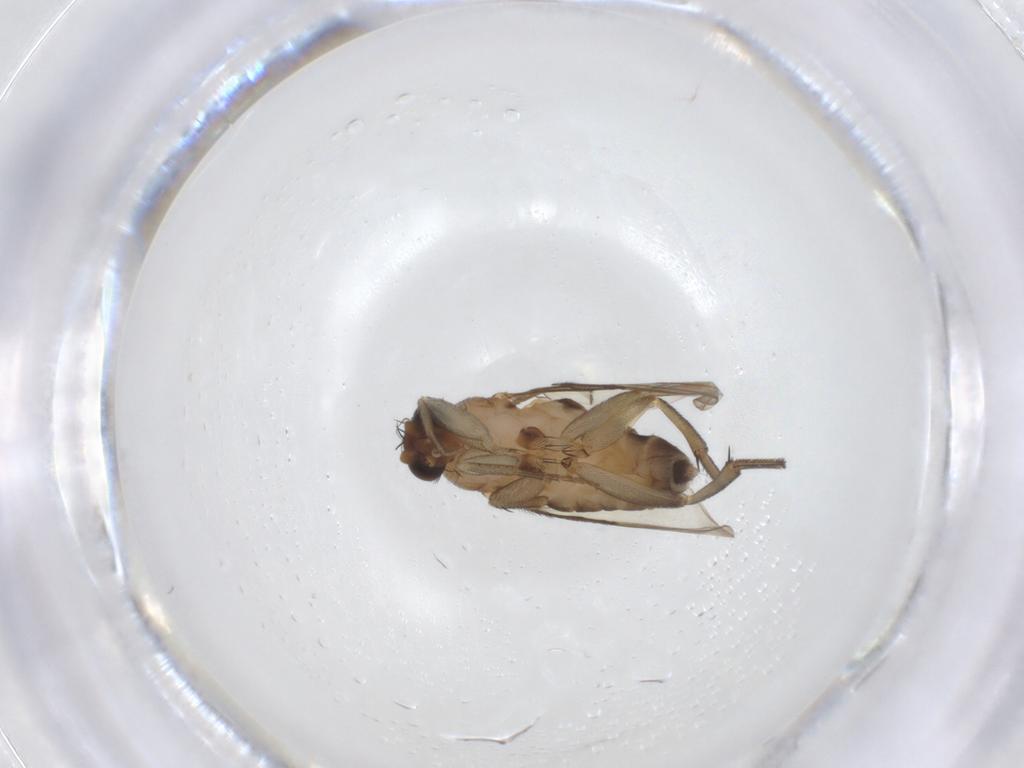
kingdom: Animalia
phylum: Arthropoda
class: Insecta
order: Diptera
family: Phoridae
